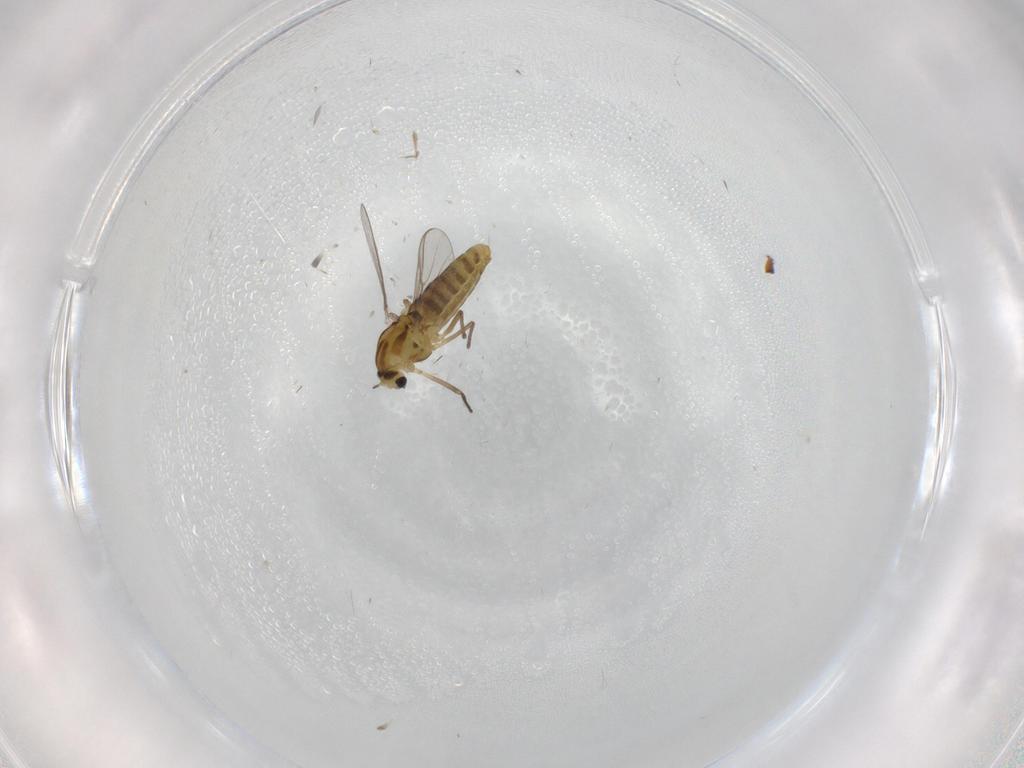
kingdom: Animalia
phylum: Arthropoda
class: Insecta
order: Diptera
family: Chironomidae
